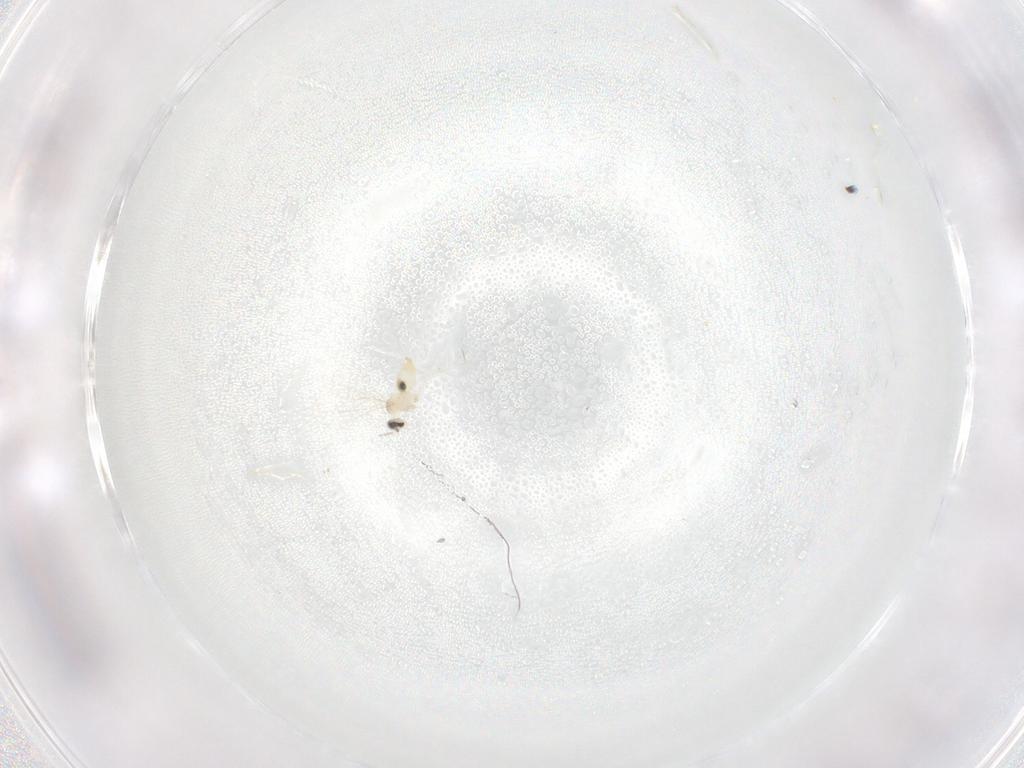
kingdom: Animalia
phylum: Arthropoda
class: Insecta
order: Diptera
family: Cecidomyiidae
